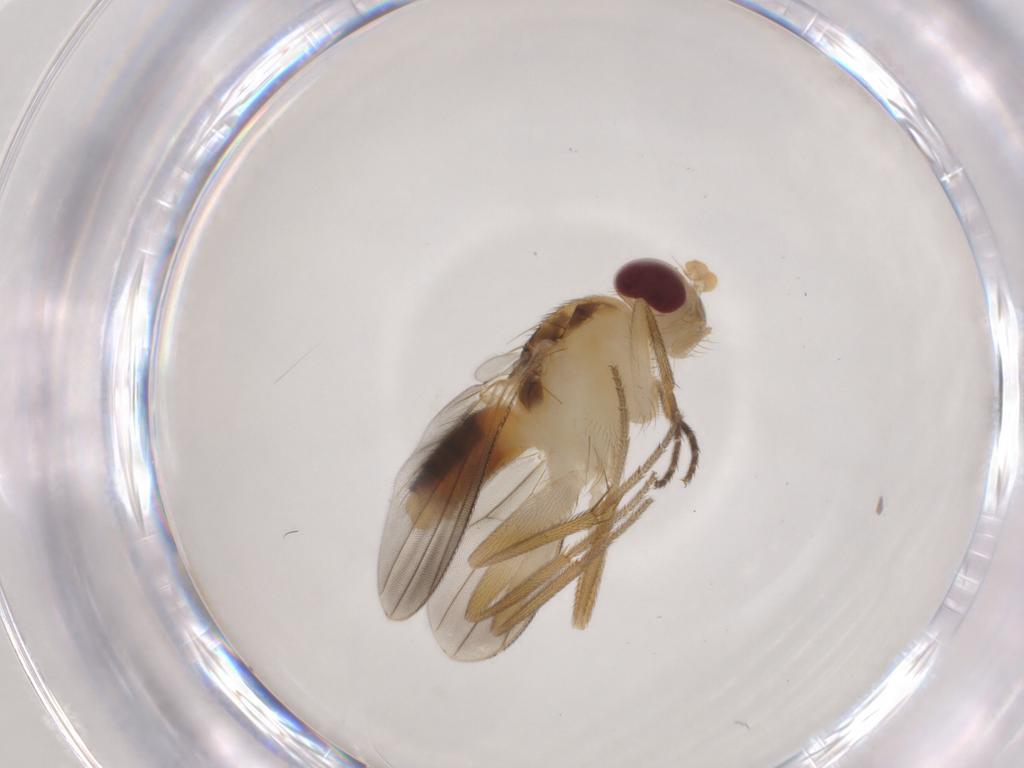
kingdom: Animalia
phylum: Arthropoda
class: Insecta
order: Diptera
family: Agromyzidae
